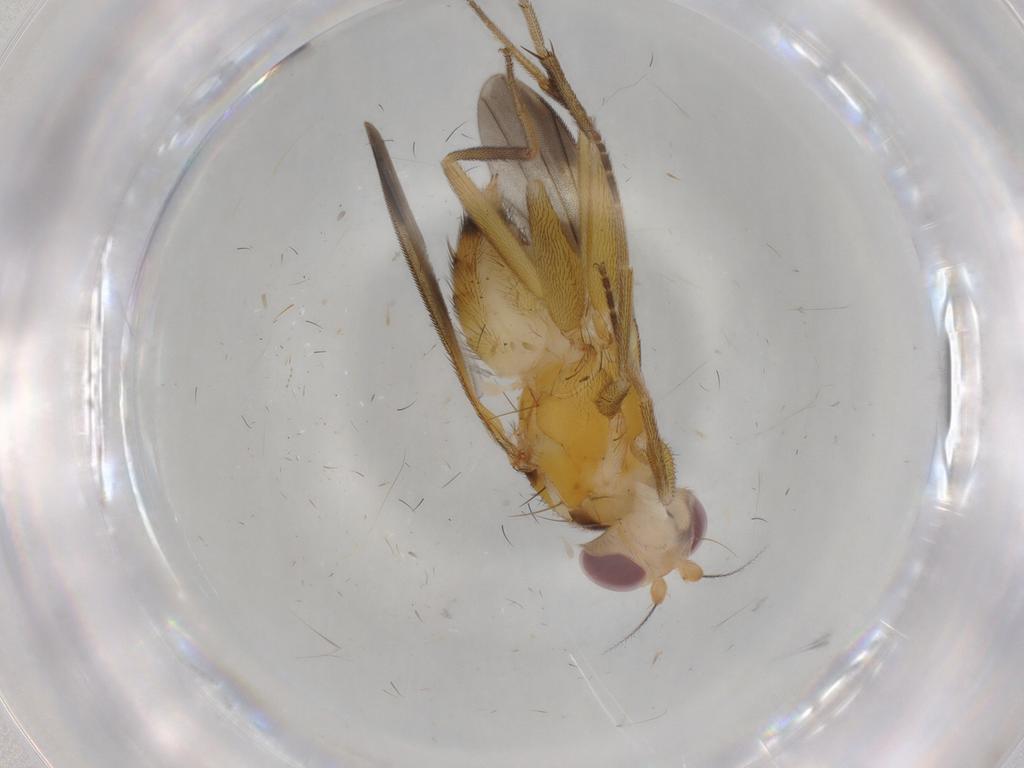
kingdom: Animalia
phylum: Arthropoda
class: Insecta
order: Diptera
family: Clusiidae
